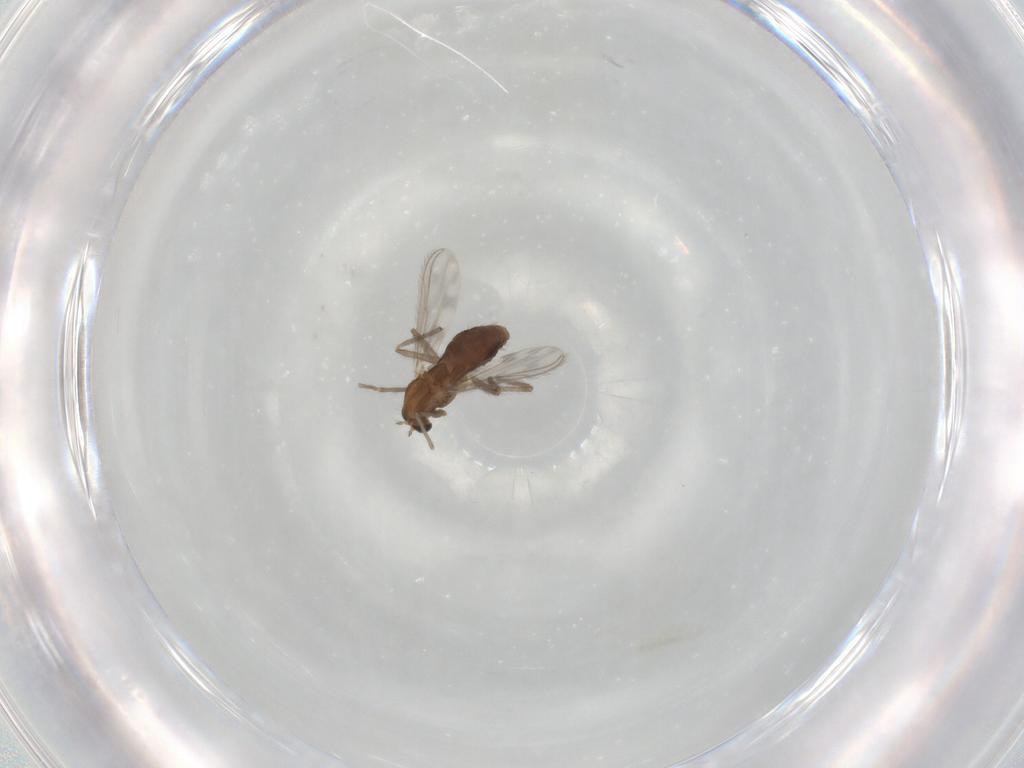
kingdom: Animalia
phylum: Arthropoda
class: Insecta
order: Diptera
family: Chironomidae
